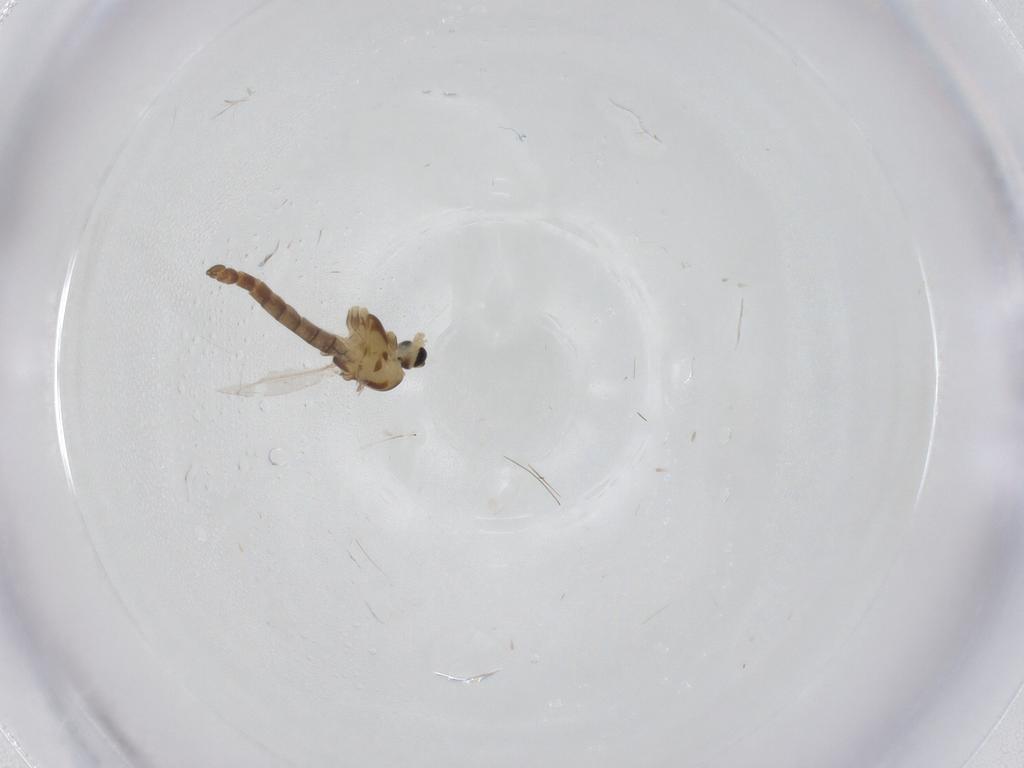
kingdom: Animalia
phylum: Arthropoda
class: Insecta
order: Diptera
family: Chironomidae
